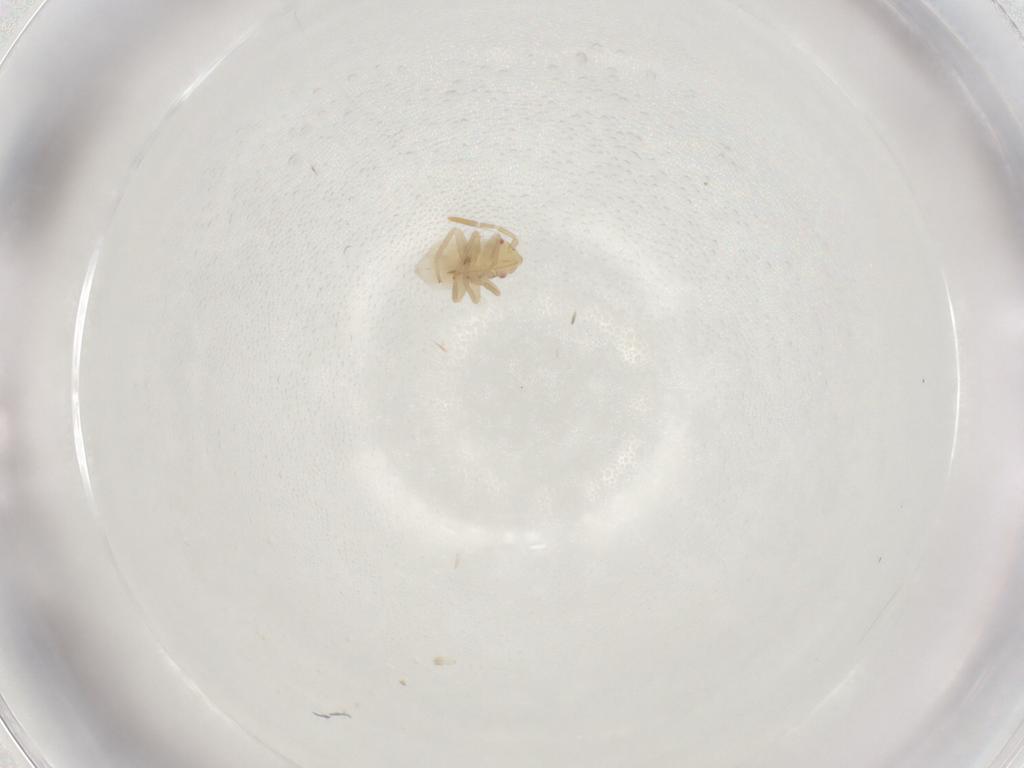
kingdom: Animalia
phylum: Arthropoda
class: Insecta
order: Hemiptera
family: Miridae
